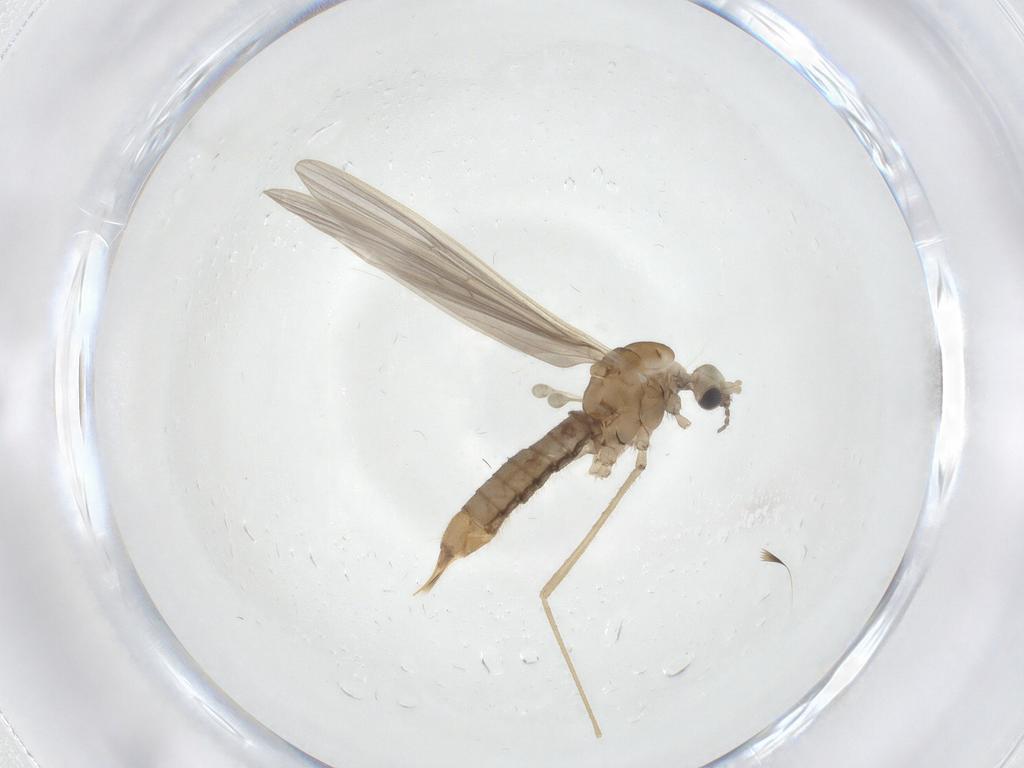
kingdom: Animalia
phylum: Arthropoda
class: Insecta
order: Diptera
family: Limoniidae
